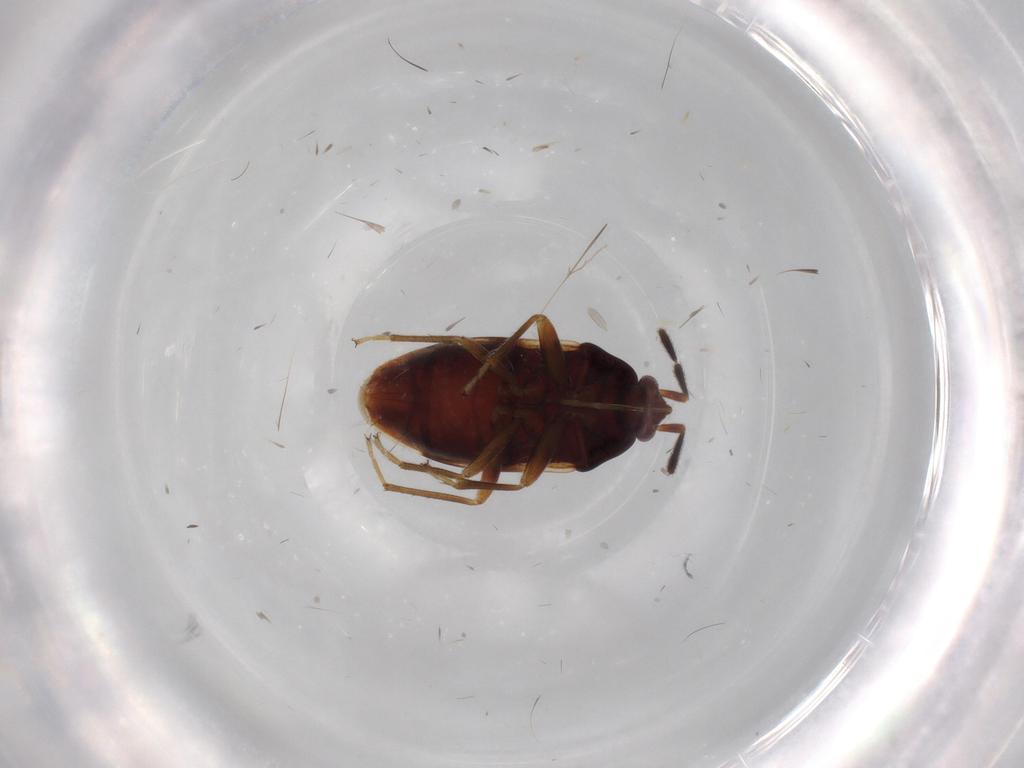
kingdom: Animalia
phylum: Arthropoda
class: Insecta
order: Hemiptera
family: Rhyparochromidae
